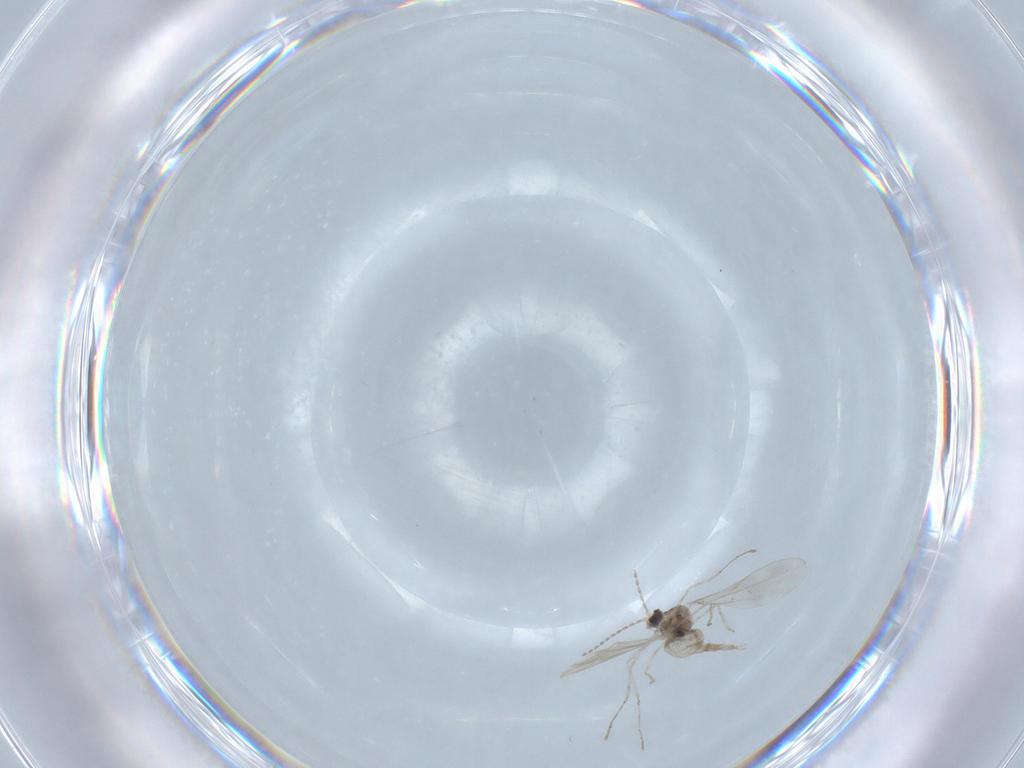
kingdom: Animalia
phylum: Arthropoda
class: Insecta
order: Diptera
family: Cecidomyiidae
